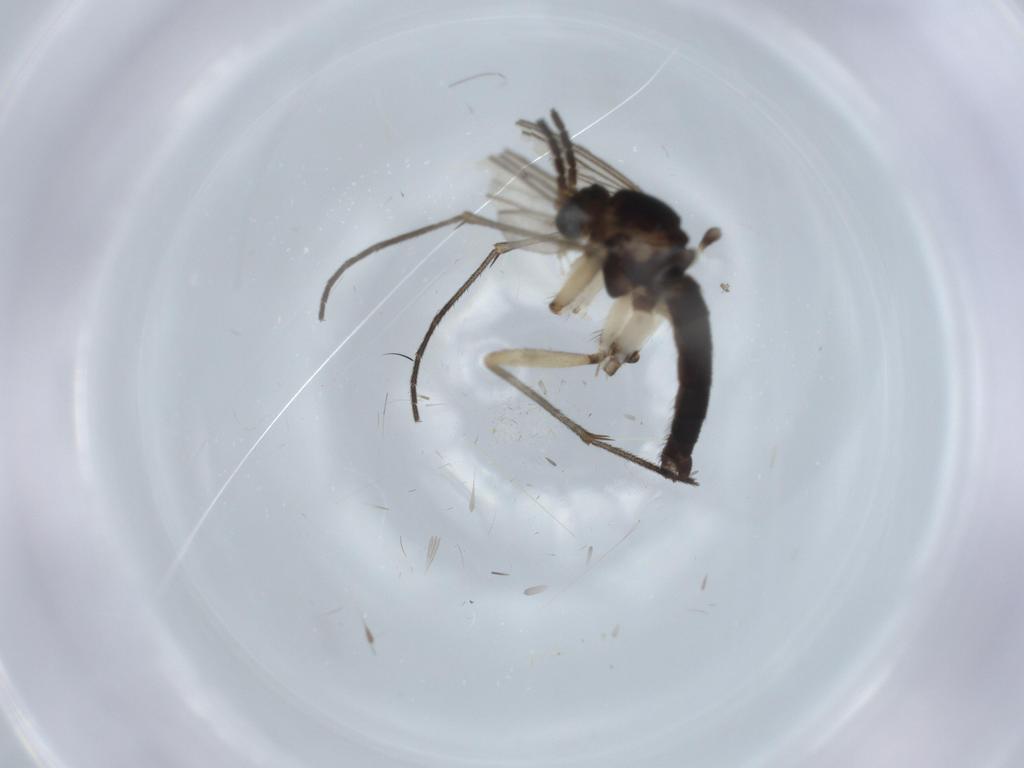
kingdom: Animalia
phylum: Arthropoda
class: Insecta
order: Diptera
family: Sciaridae
